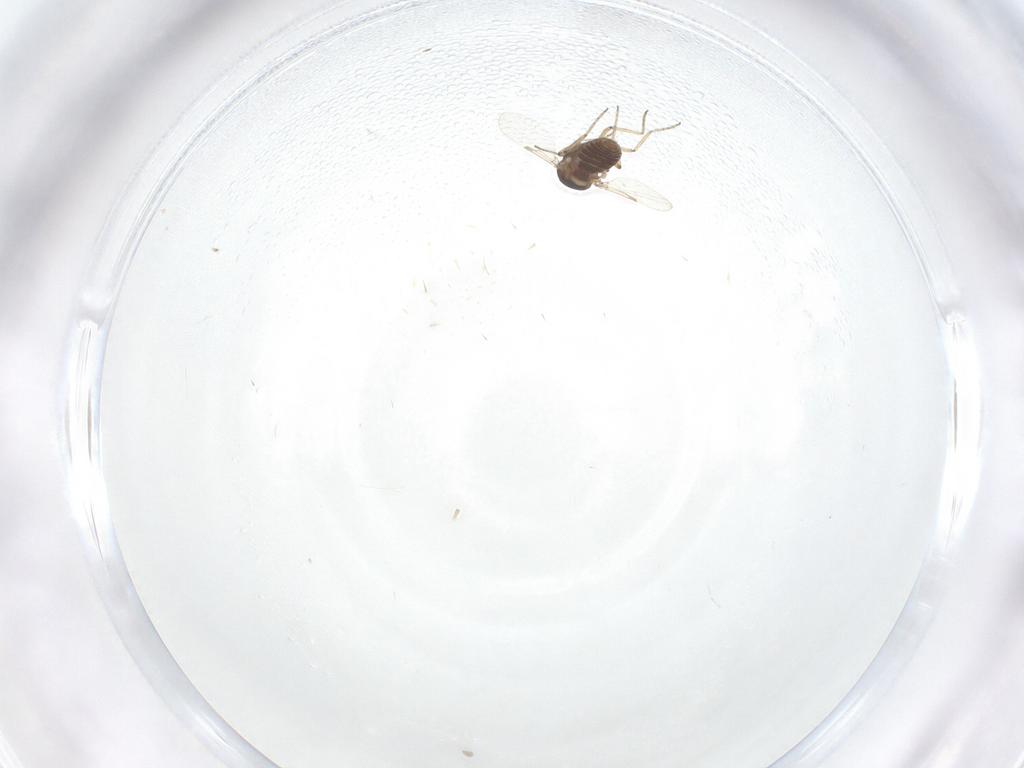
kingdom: Animalia
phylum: Arthropoda
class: Insecta
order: Diptera
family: Ceratopogonidae
